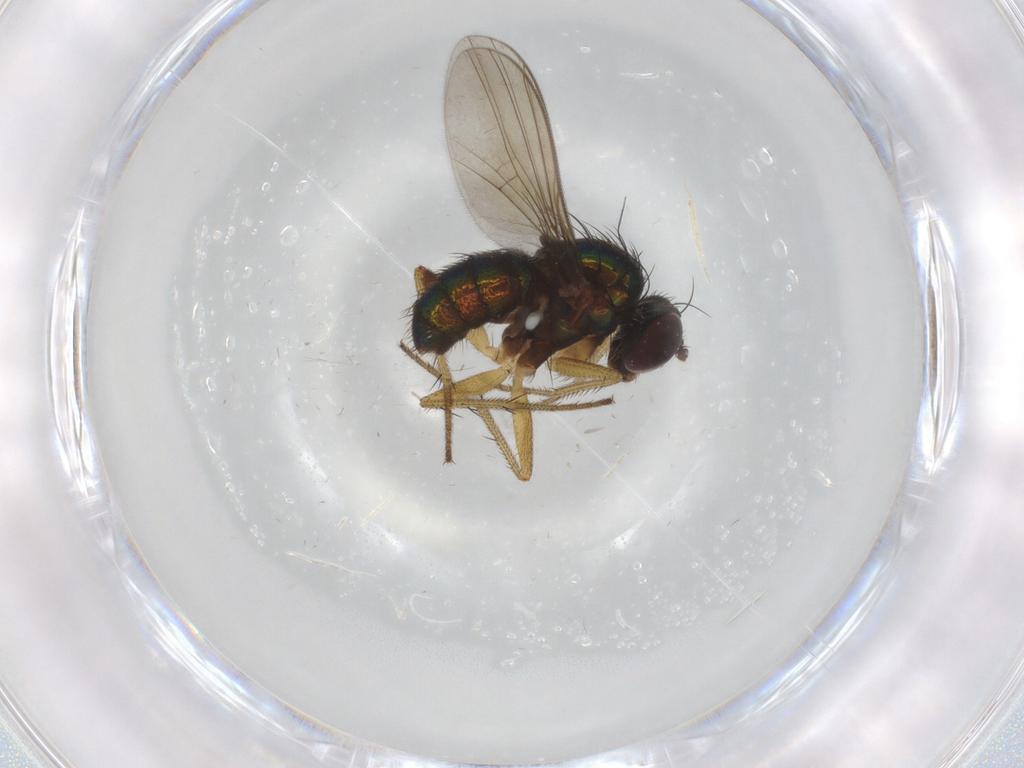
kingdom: Animalia
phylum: Arthropoda
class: Insecta
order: Diptera
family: Dolichopodidae
